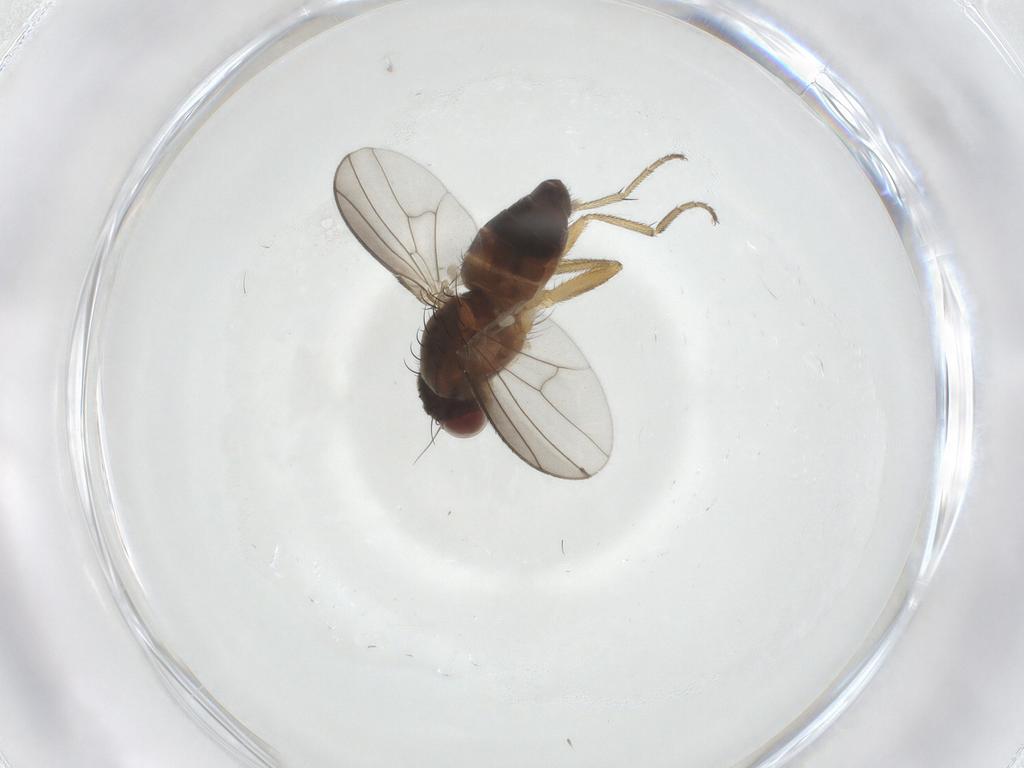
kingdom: Animalia
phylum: Arthropoda
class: Insecta
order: Diptera
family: Heleomyzidae
